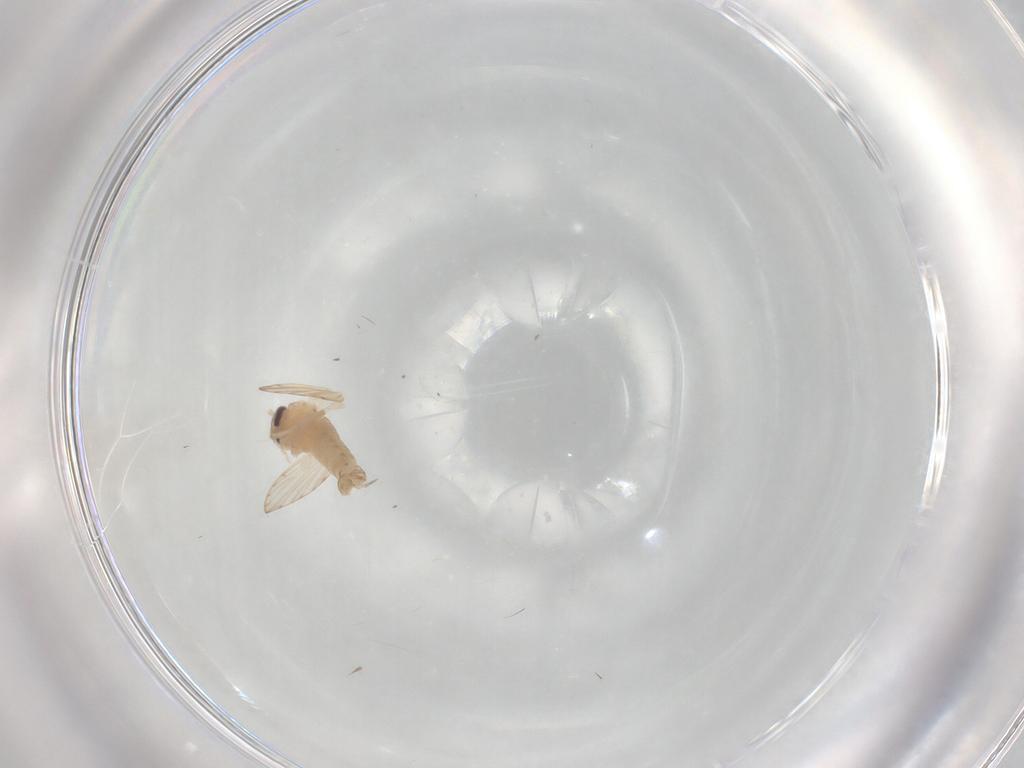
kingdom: Animalia
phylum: Arthropoda
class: Insecta
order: Diptera
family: Psychodidae
